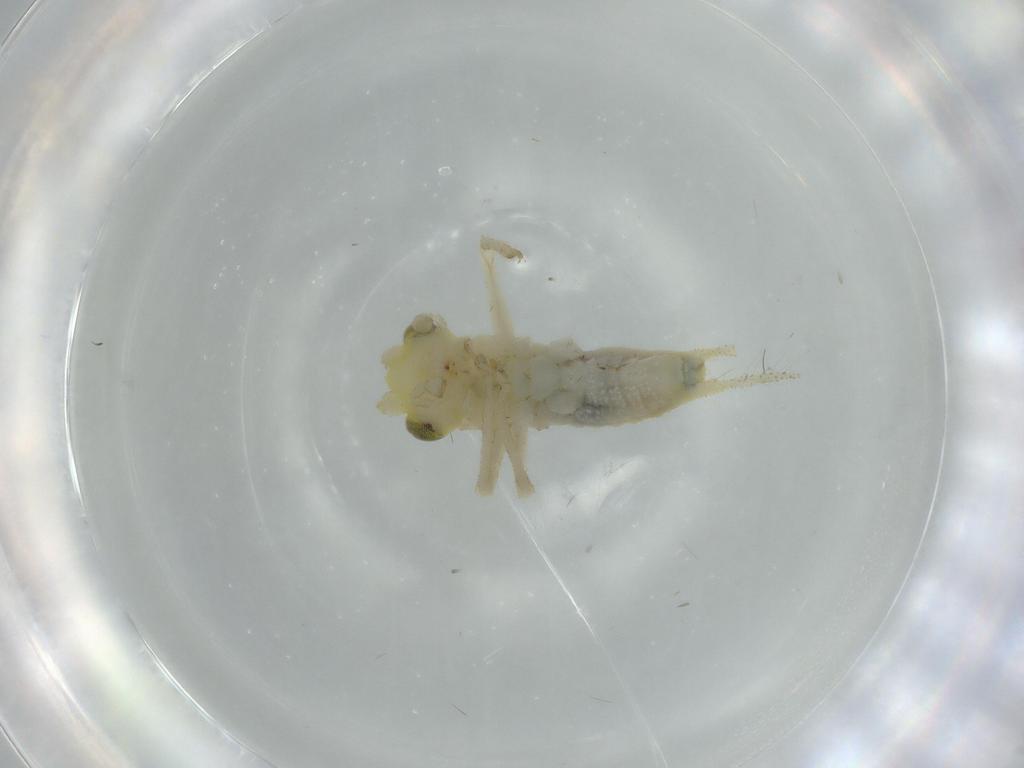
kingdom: Animalia
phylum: Arthropoda
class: Insecta
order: Orthoptera
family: Trigonidiidae
